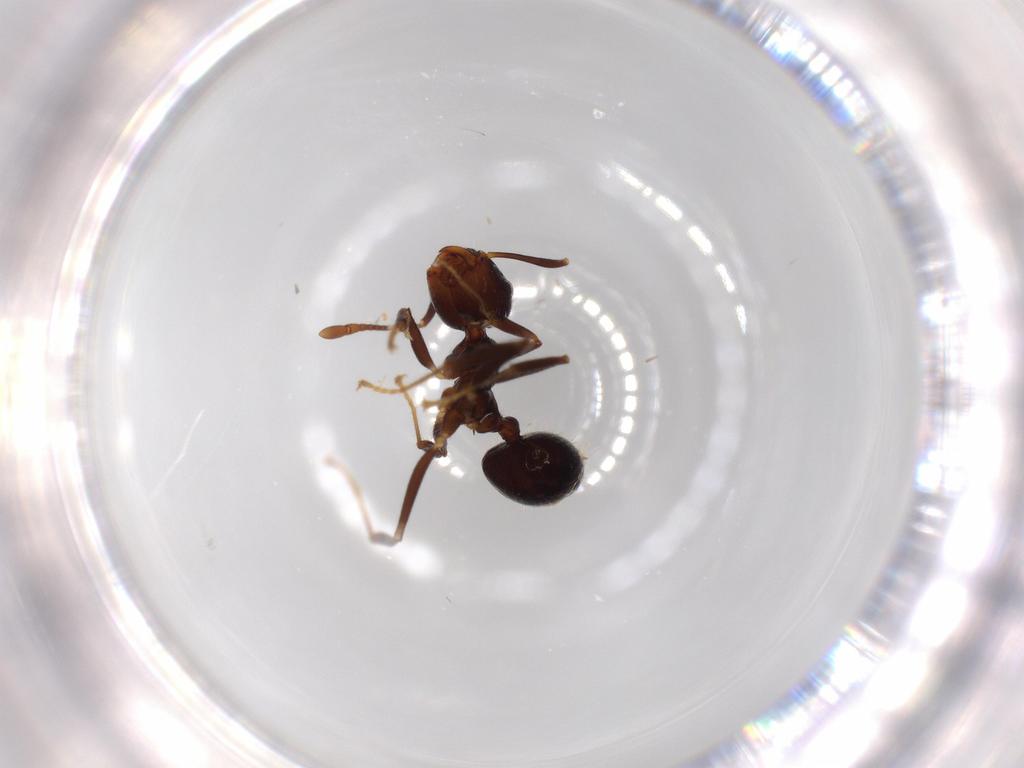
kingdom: Animalia
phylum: Arthropoda
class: Insecta
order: Hymenoptera
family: Formicidae
